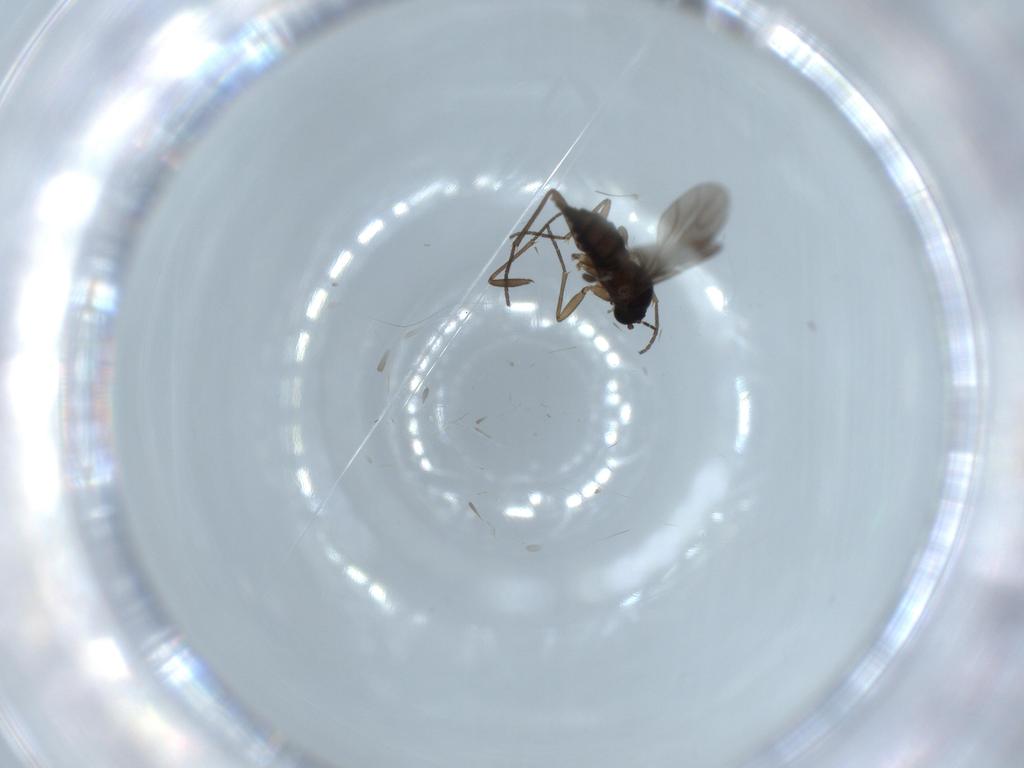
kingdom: Animalia
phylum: Arthropoda
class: Insecta
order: Diptera
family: Sciaridae
